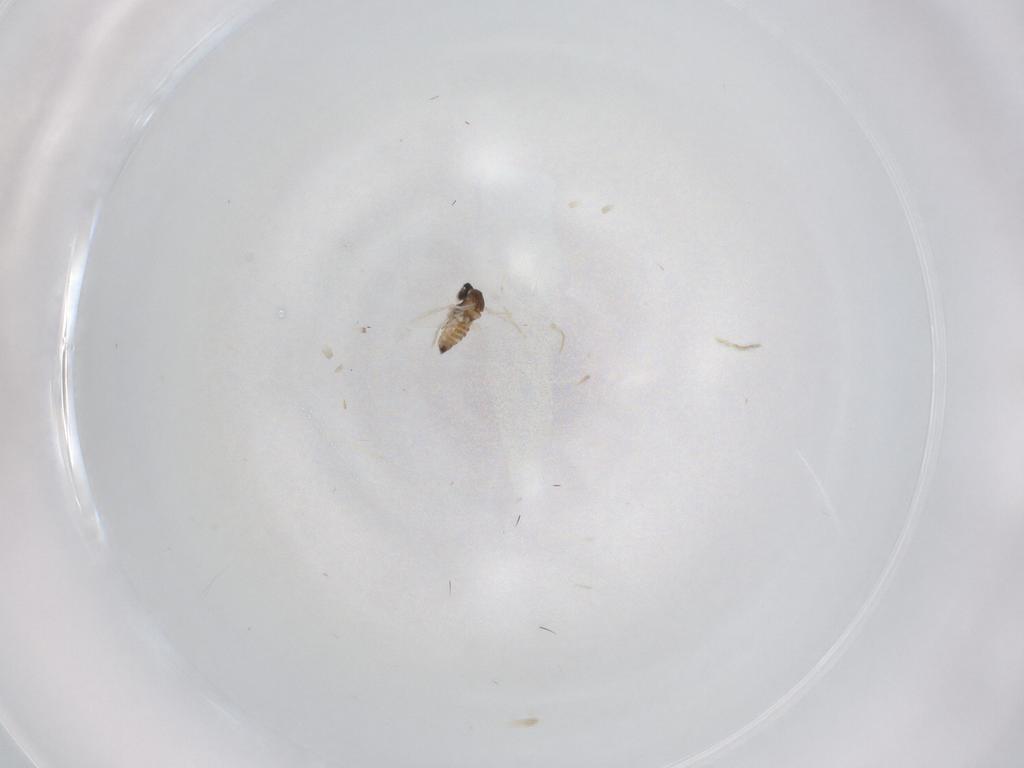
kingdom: Animalia
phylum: Arthropoda
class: Insecta
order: Diptera
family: Cecidomyiidae
